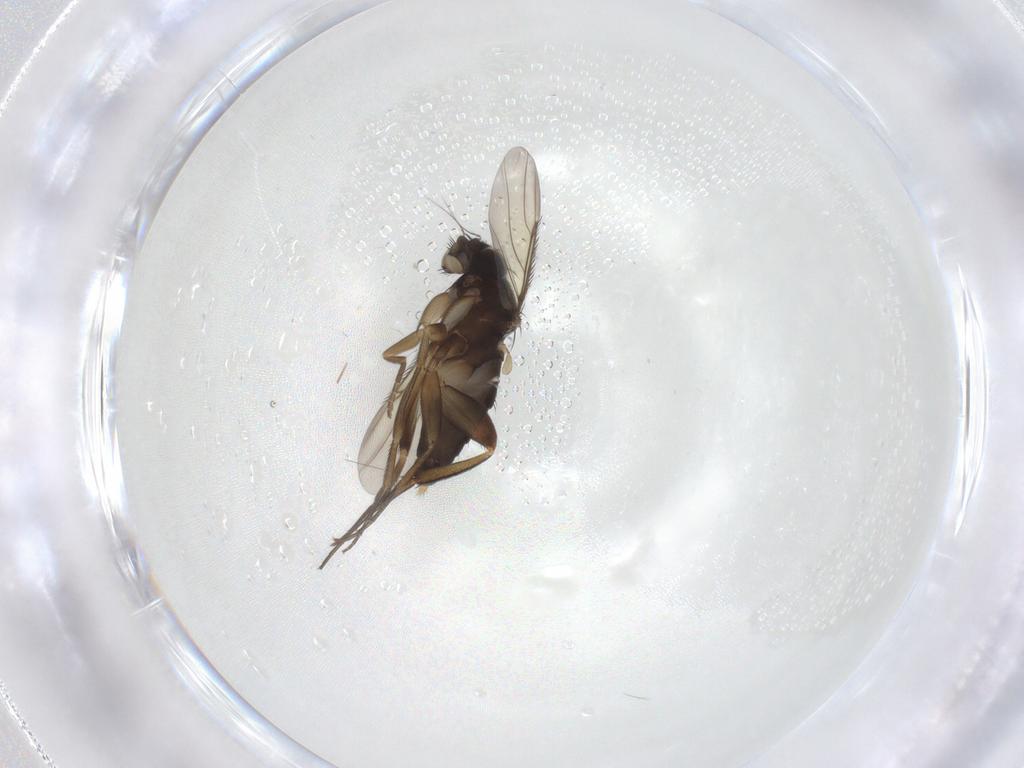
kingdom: Animalia
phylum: Arthropoda
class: Insecta
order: Diptera
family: Phoridae
